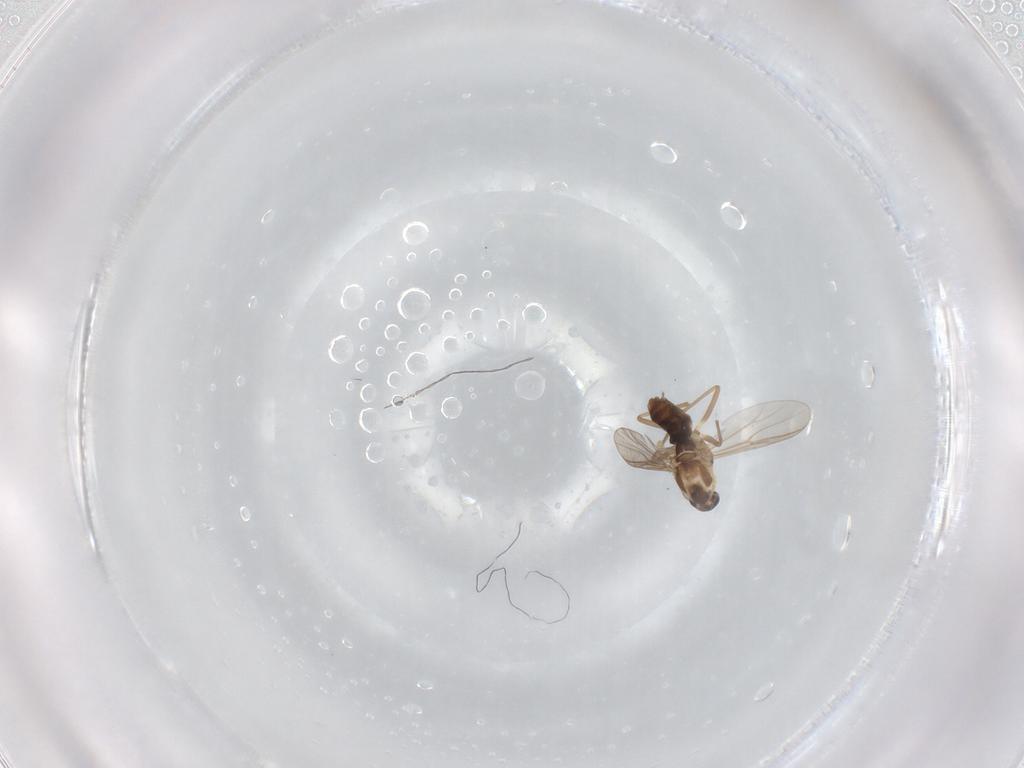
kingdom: Animalia
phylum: Arthropoda
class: Insecta
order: Diptera
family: Chironomidae
